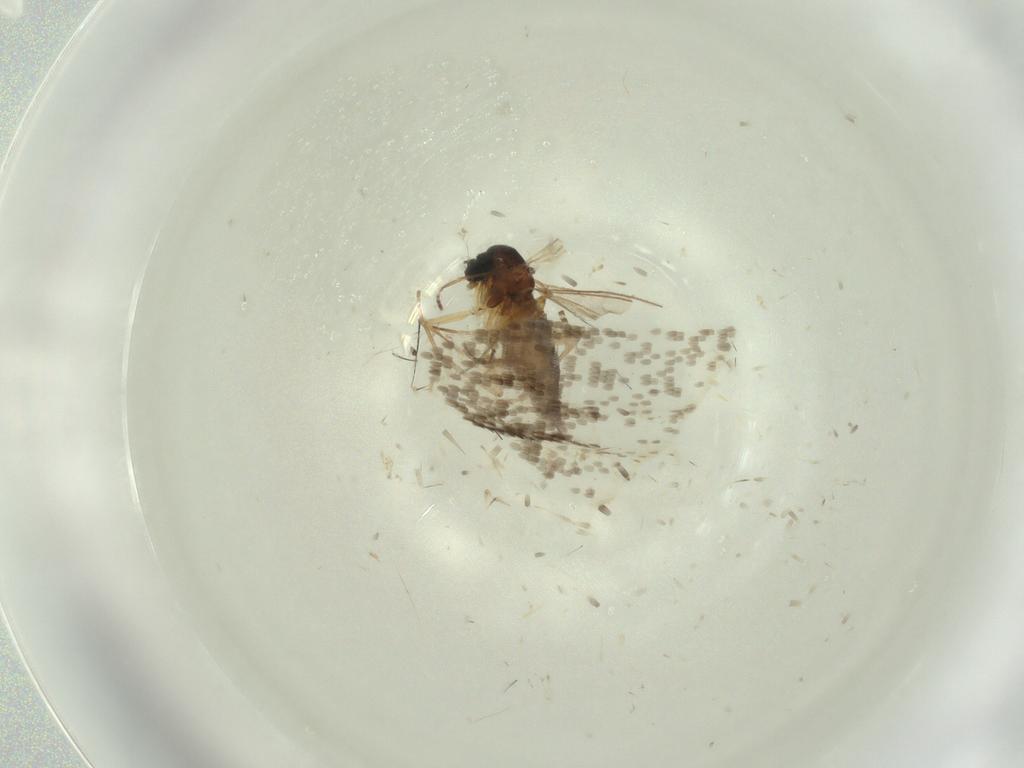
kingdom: Animalia
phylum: Arthropoda
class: Insecta
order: Diptera
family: Mycetophilidae
